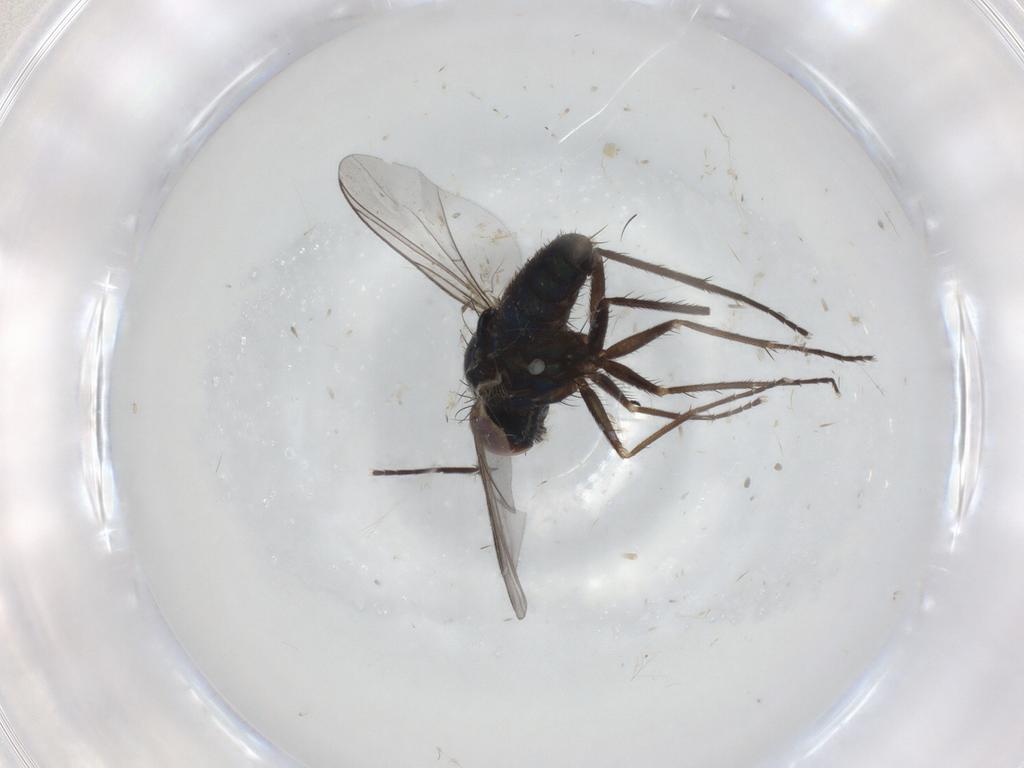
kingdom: Animalia
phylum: Arthropoda
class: Insecta
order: Diptera
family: Dolichopodidae
